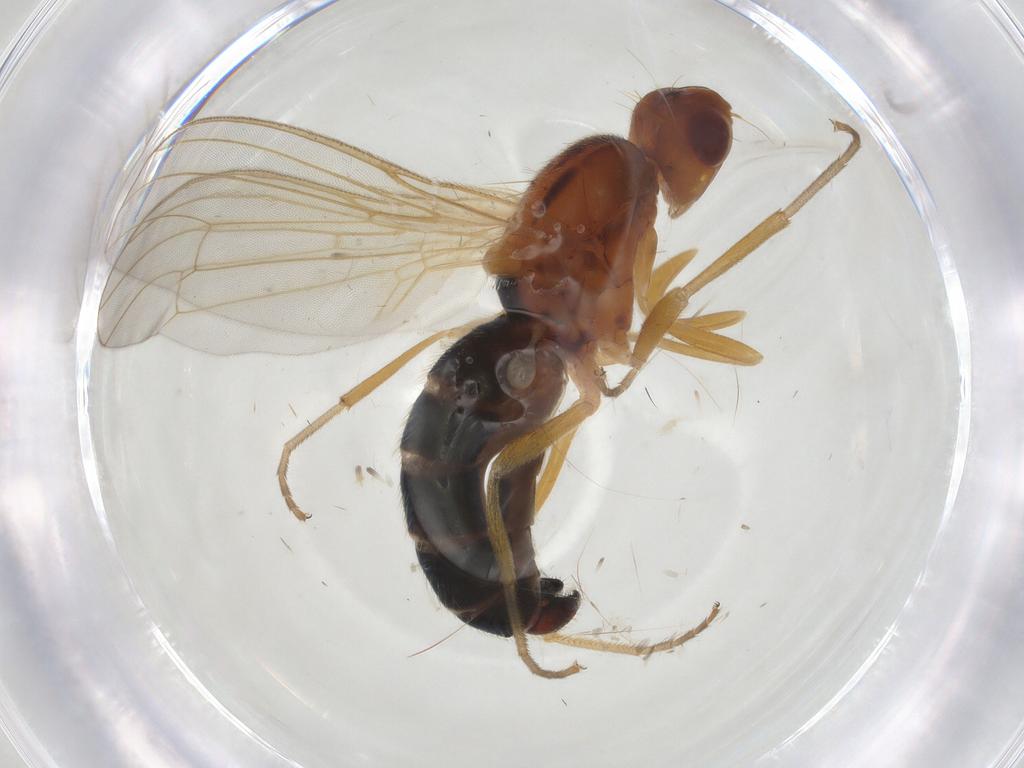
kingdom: Animalia
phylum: Arthropoda
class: Insecta
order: Diptera
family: Psilidae
